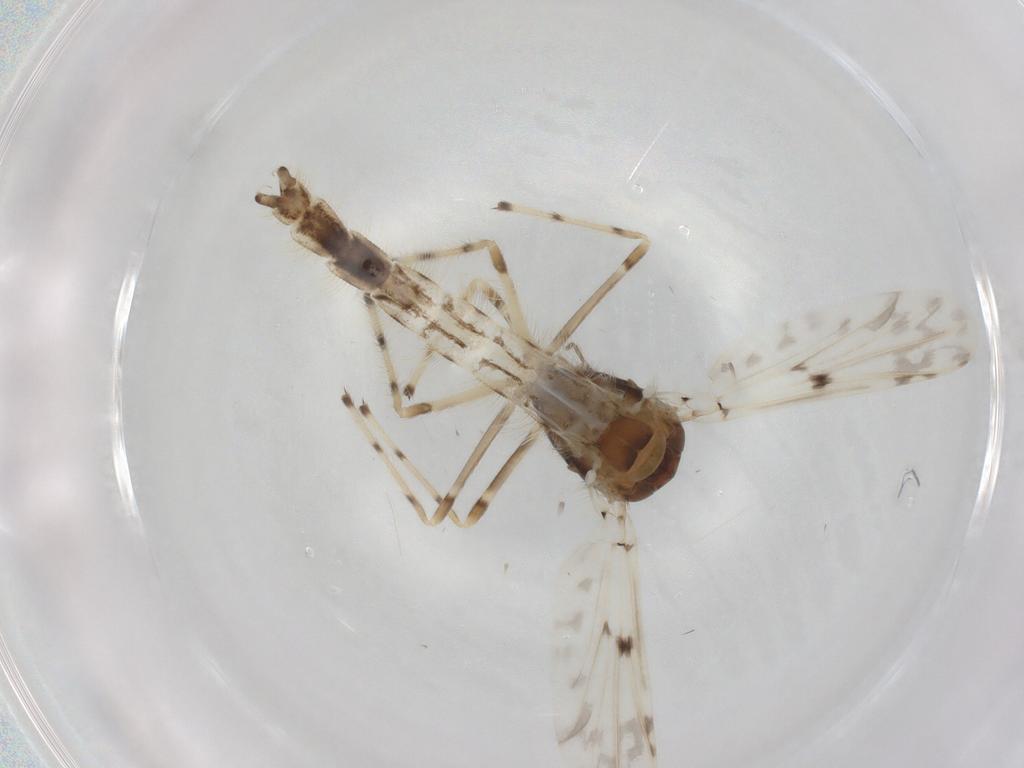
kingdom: Animalia
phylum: Arthropoda
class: Insecta
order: Diptera
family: Chironomidae
